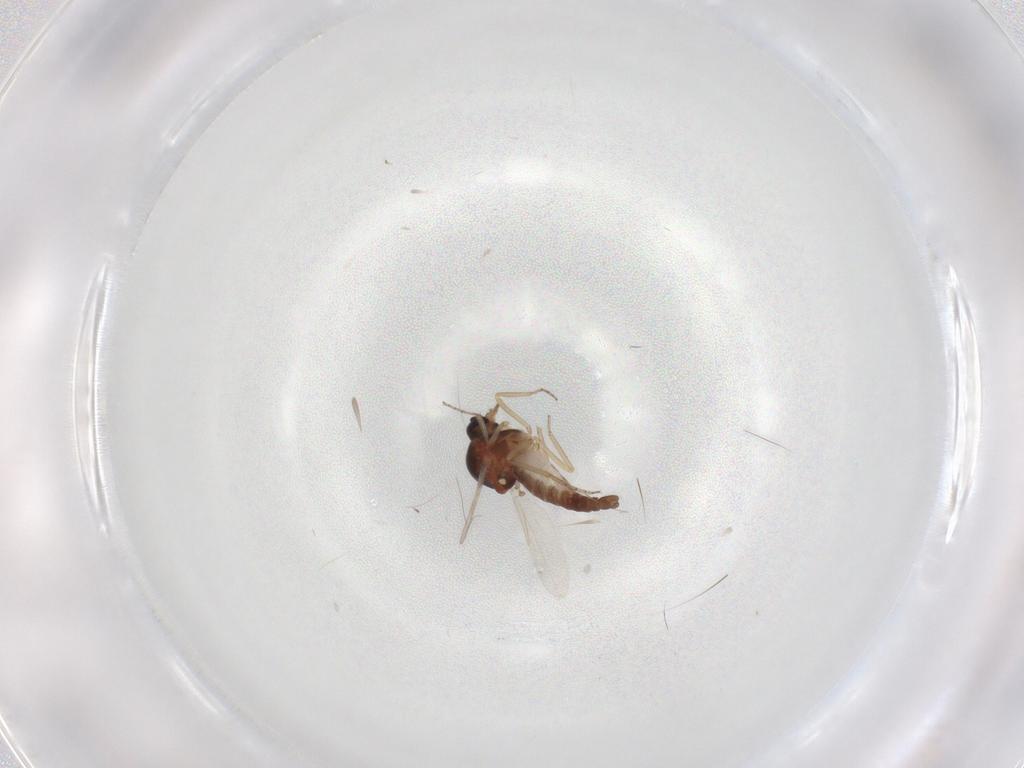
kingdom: Animalia
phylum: Arthropoda
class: Insecta
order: Diptera
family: Ceratopogonidae
